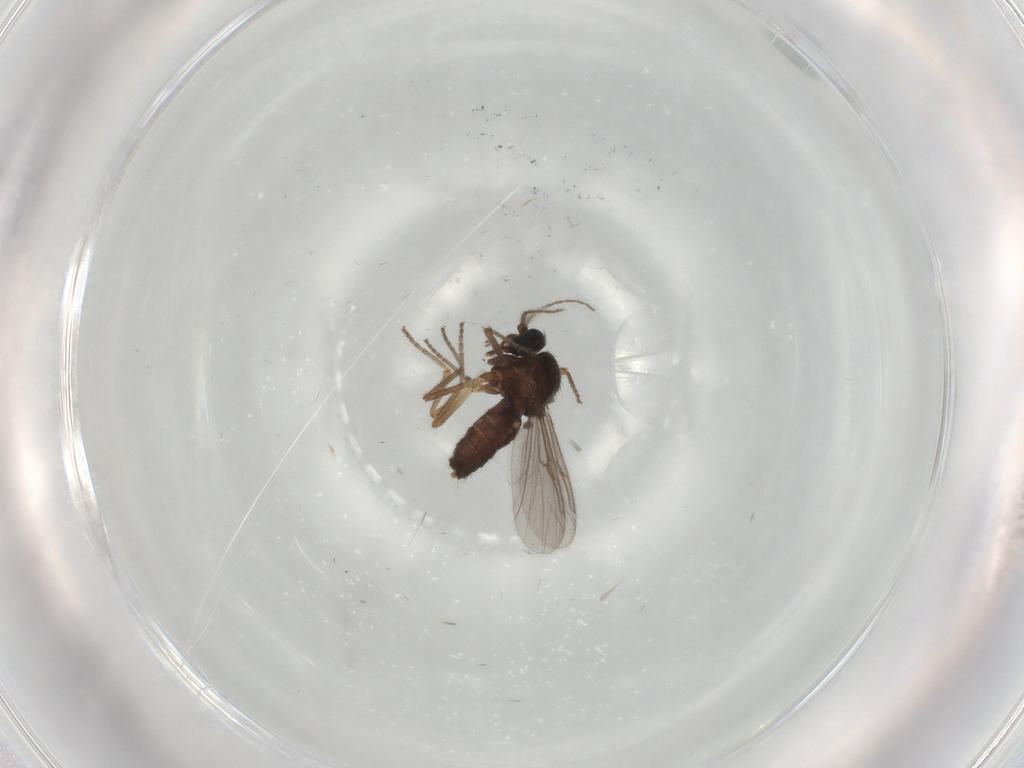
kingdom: Animalia
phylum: Arthropoda
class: Insecta
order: Diptera
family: Ceratopogonidae
